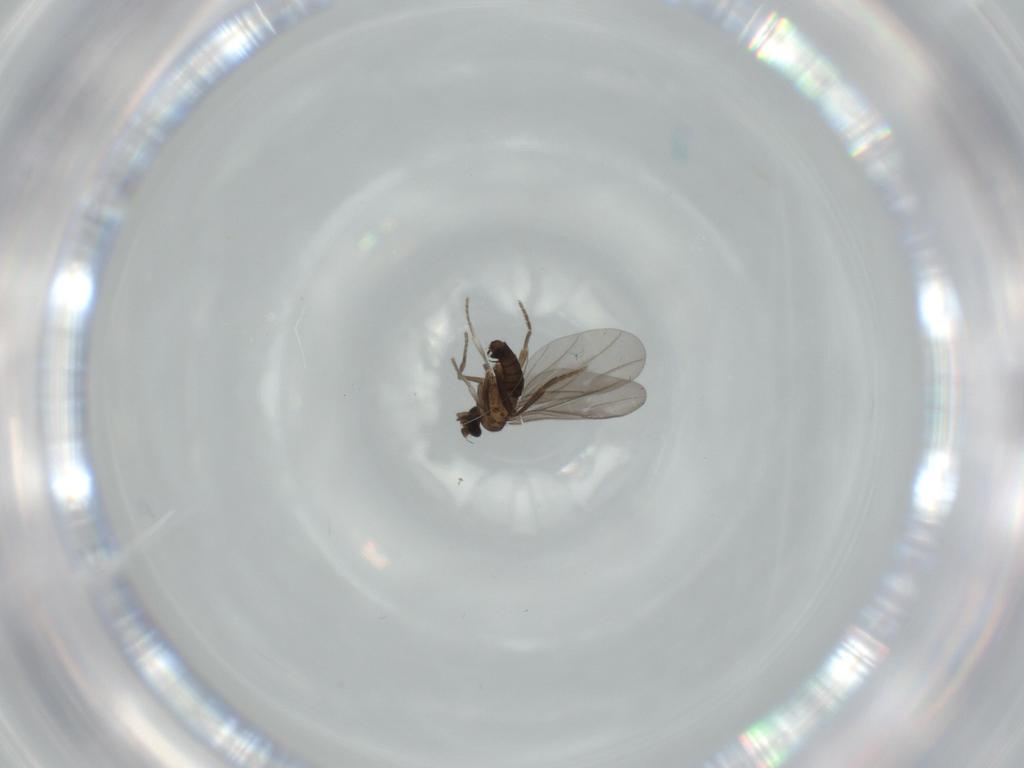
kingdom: Animalia
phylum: Arthropoda
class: Insecta
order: Diptera
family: Phoridae
